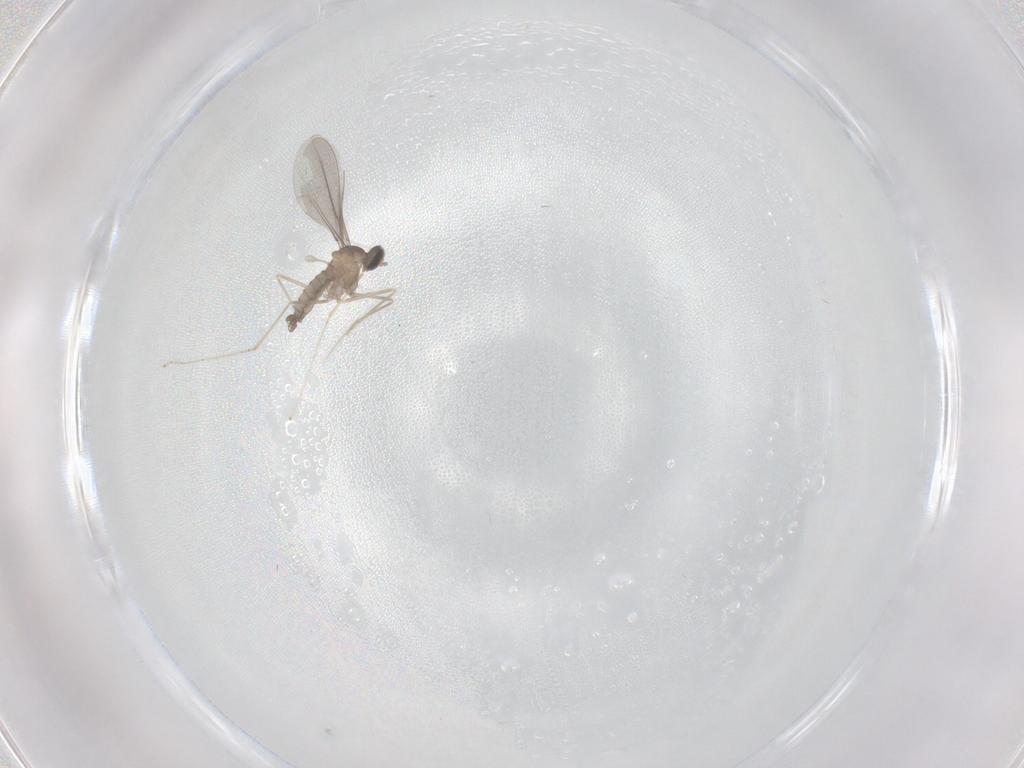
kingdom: Animalia
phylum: Arthropoda
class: Insecta
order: Diptera
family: Cecidomyiidae
